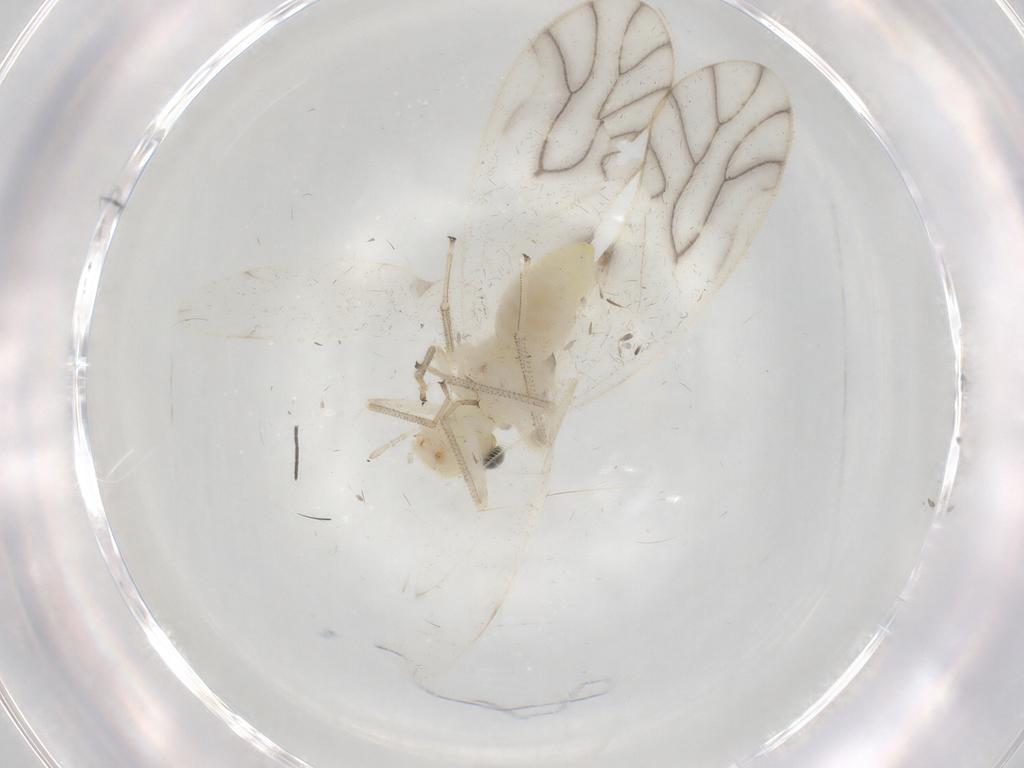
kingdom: Animalia
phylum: Arthropoda
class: Insecta
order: Psocodea
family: Caeciliusidae
